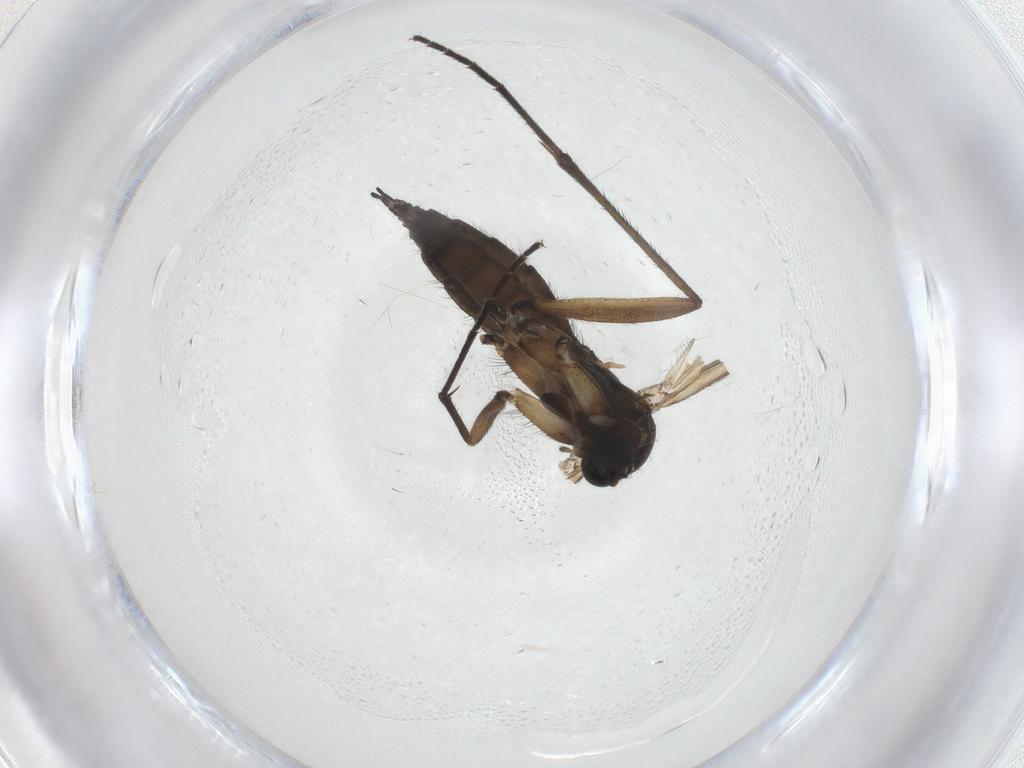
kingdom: Animalia
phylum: Arthropoda
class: Insecta
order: Diptera
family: Sciaridae
